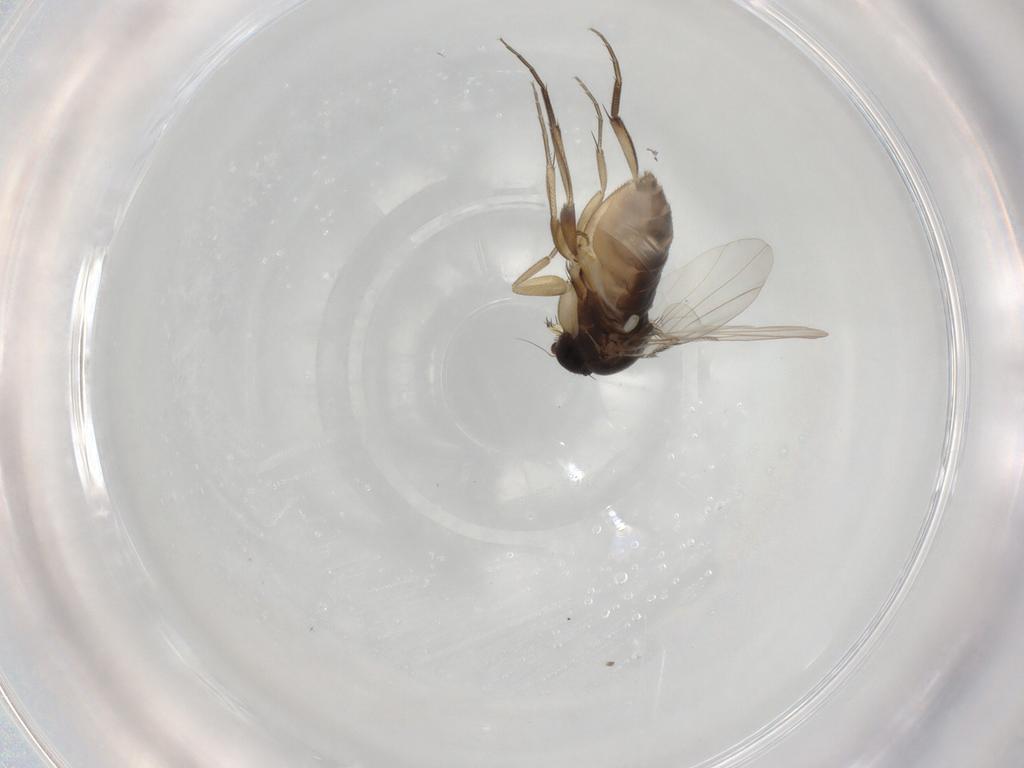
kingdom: Animalia
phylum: Arthropoda
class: Insecta
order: Diptera
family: Phoridae
